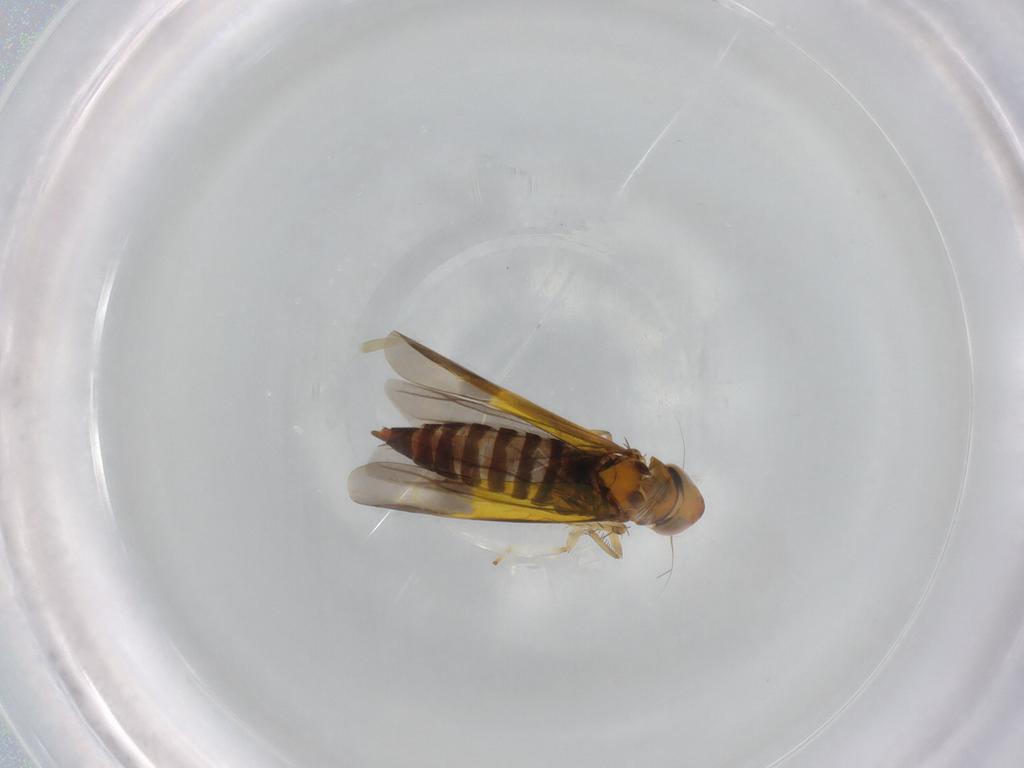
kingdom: Animalia
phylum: Arthropoda
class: Insecta
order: Hemiptera
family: Cicadellidae
